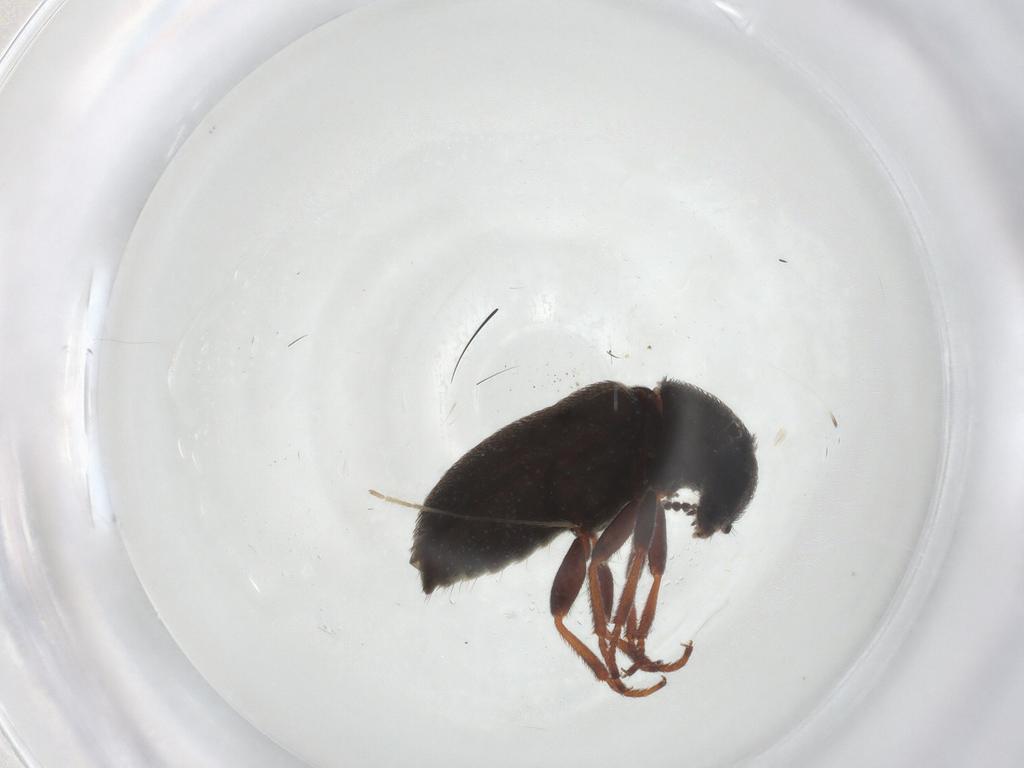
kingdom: Animalia
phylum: Arthropoda
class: Insecta
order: Coleoptera
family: Melyridae
